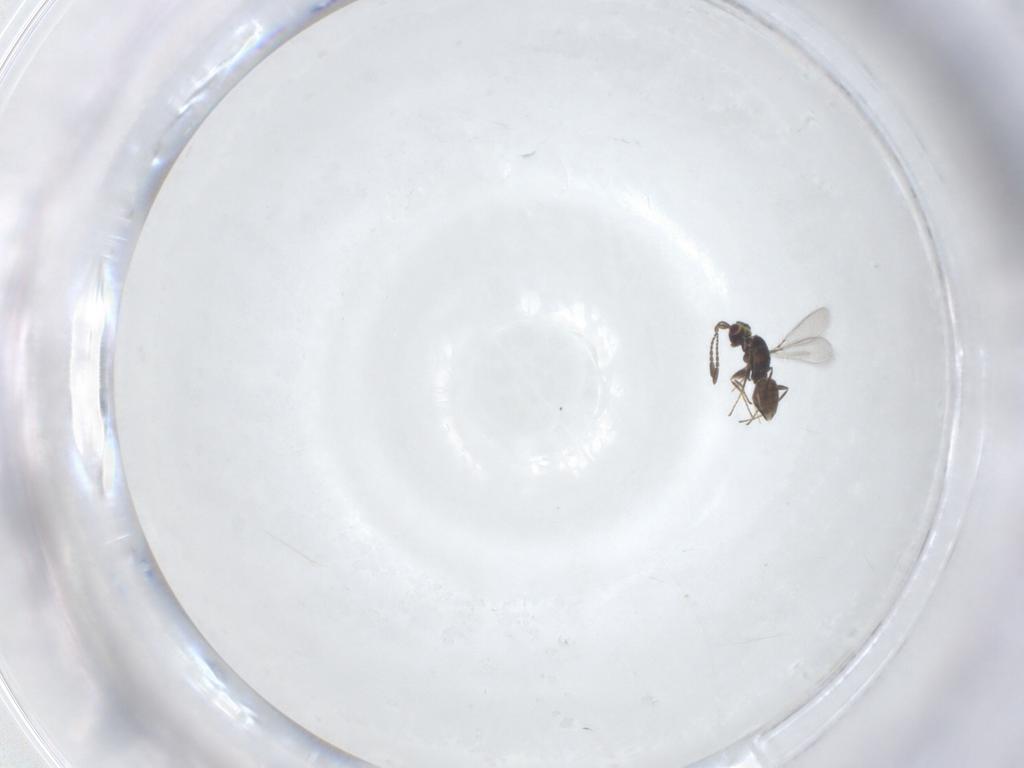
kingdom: Animalia
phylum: Arthropoda
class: Insecta
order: Hymenoptera
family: Mymaridae
